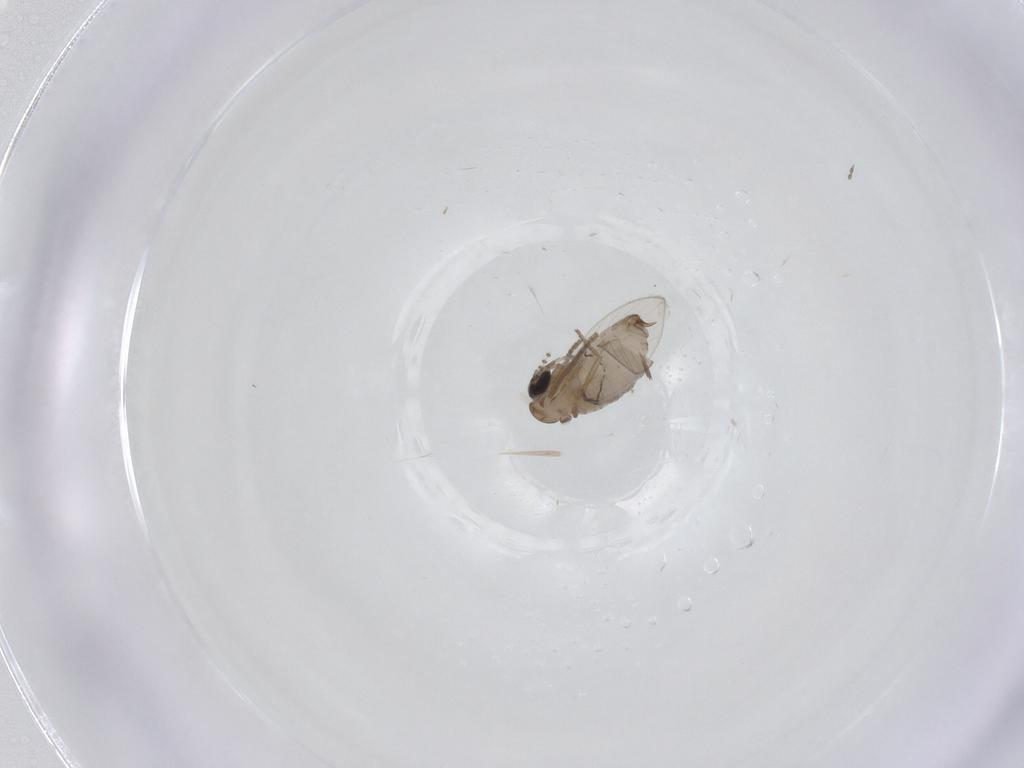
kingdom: Animalia
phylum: Arthropoda
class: Insecta
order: Diptera
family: Psychodidae
